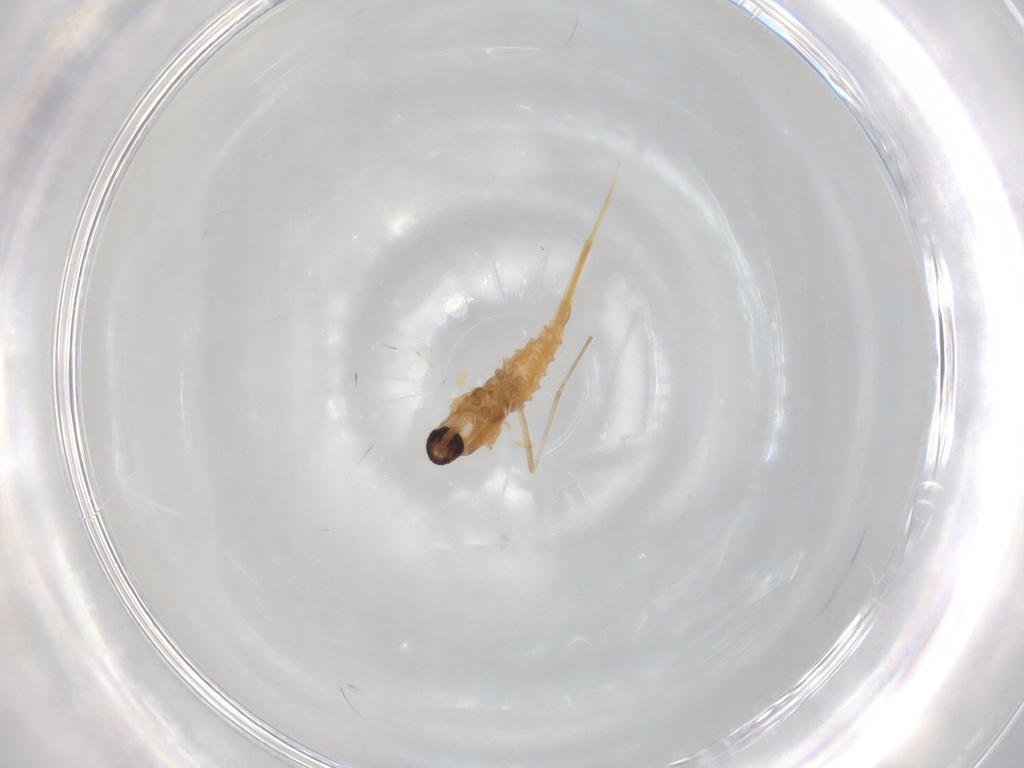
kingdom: Animalia
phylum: Arthropoda
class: Insecta
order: Diptera
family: Cecidomyiidae
